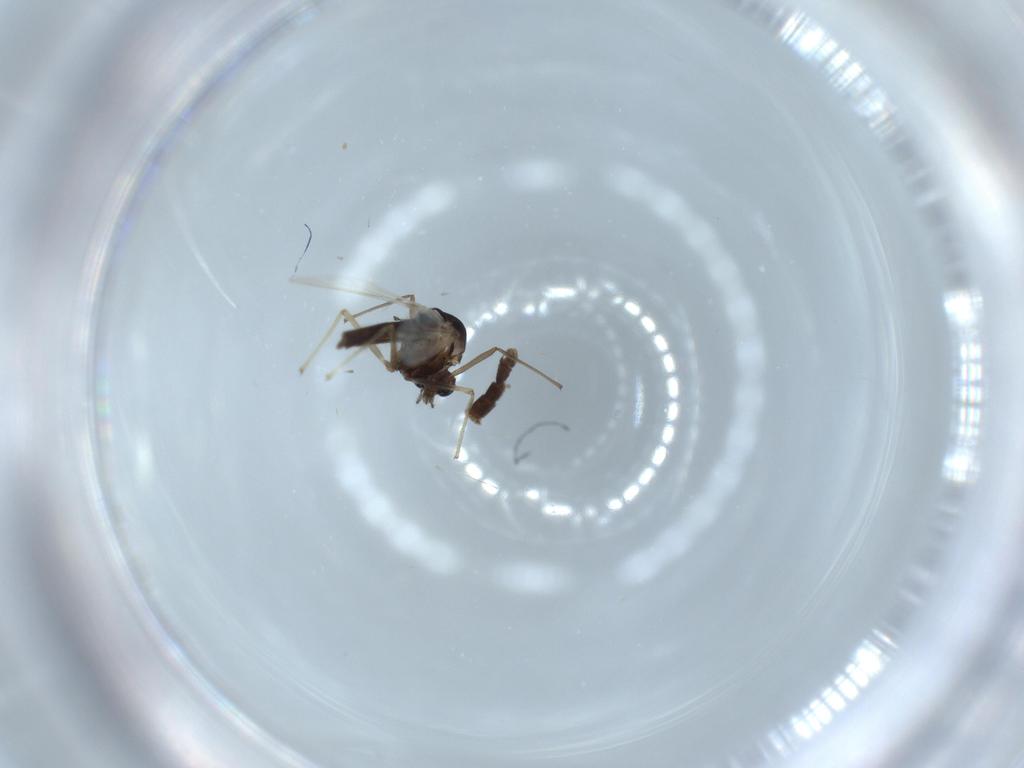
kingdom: Animalia
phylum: Arthropoda
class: Insecta
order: Diptera
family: Chironomidae
